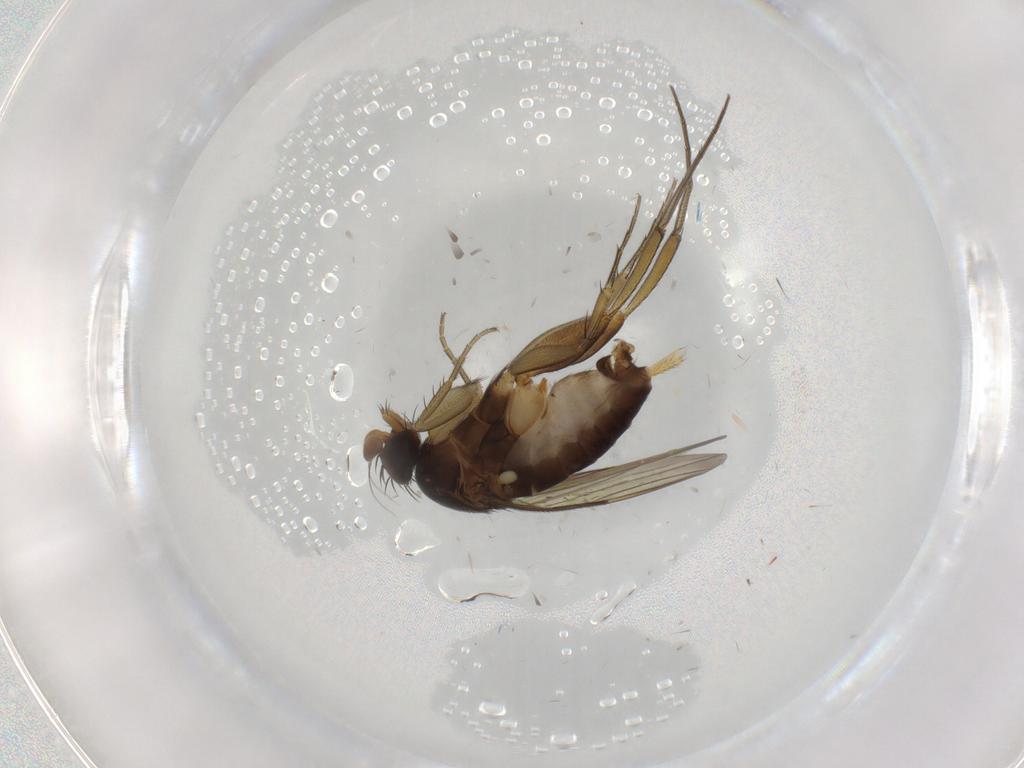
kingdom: Animalia
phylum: Arthropoda
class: Insecta
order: Diptera
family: Phoridae
